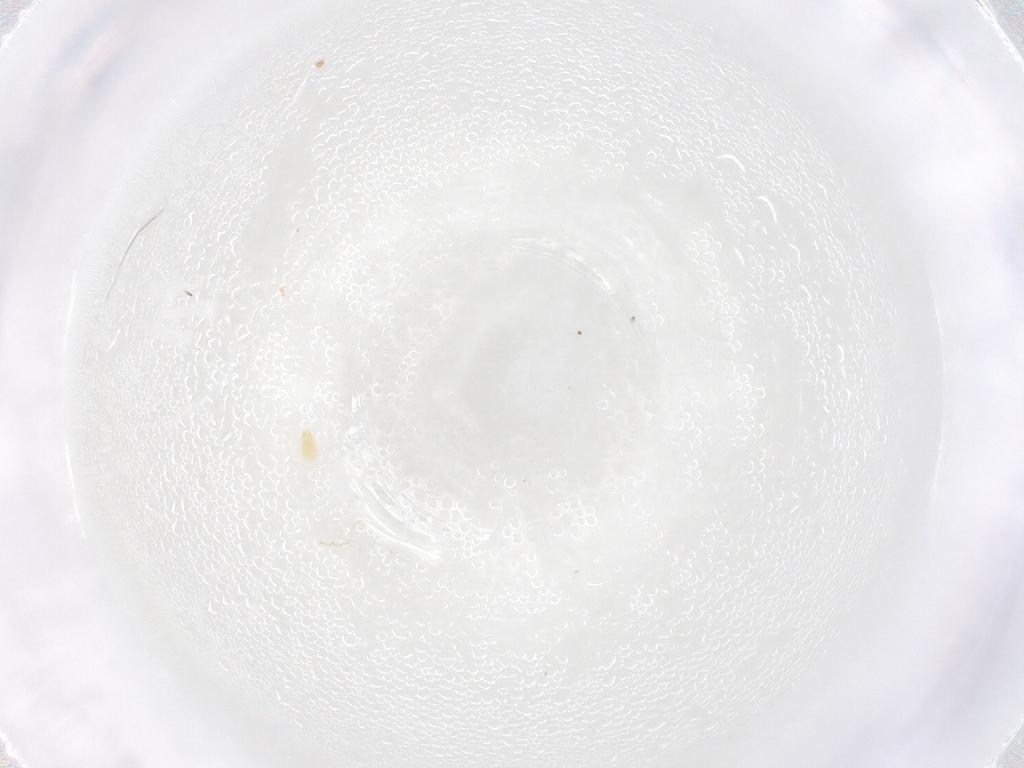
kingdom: Animalia
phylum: Arthropoda
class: Arachnida
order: Trombidiformes
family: Eupodidae
